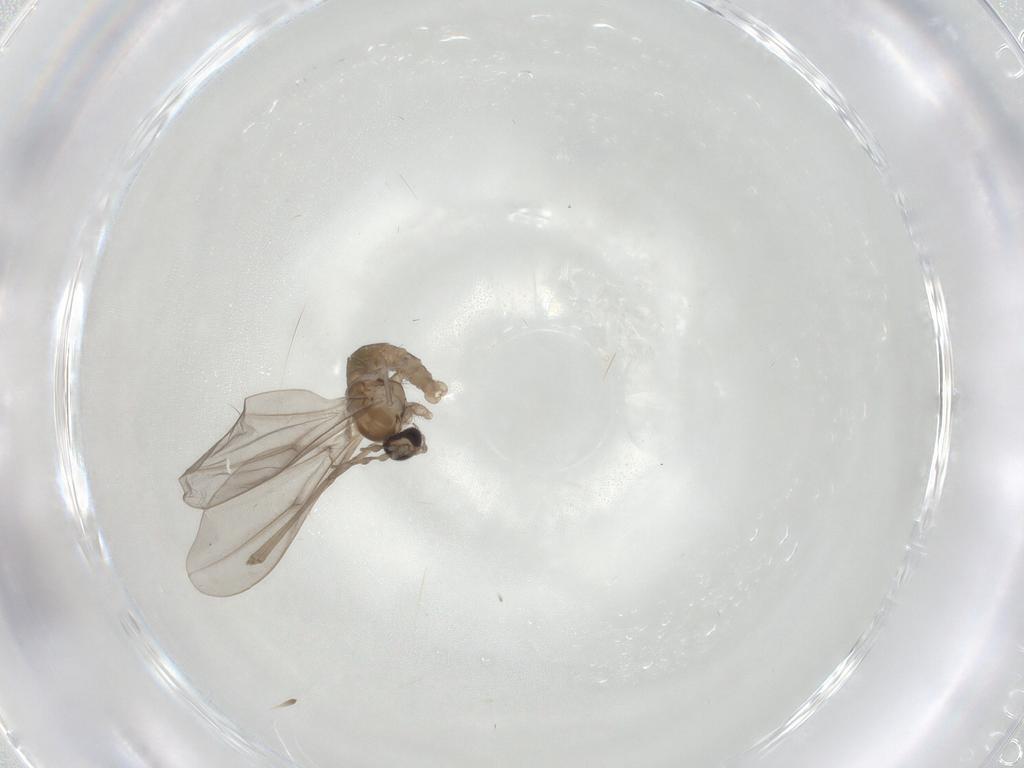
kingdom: Animalia
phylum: Arthropoda
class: Insecta
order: Diptera
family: Cecidomyiidae
